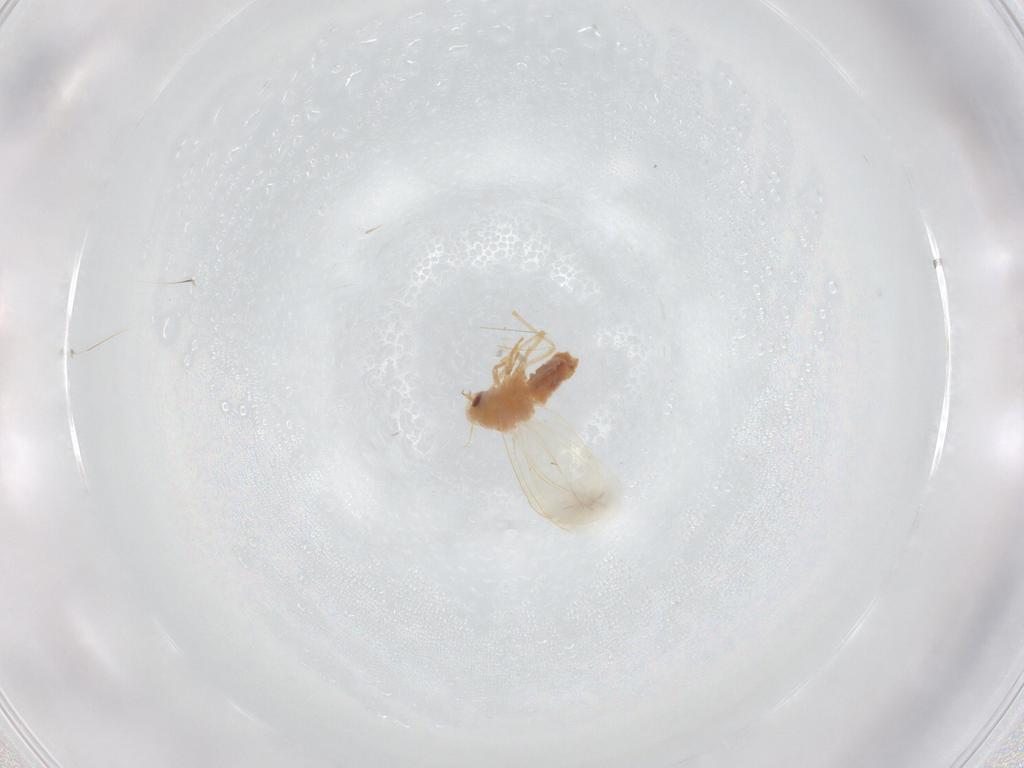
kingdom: Animalia
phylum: Arthropoda
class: Insecta
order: Hemiptera
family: Aleyrodidae
